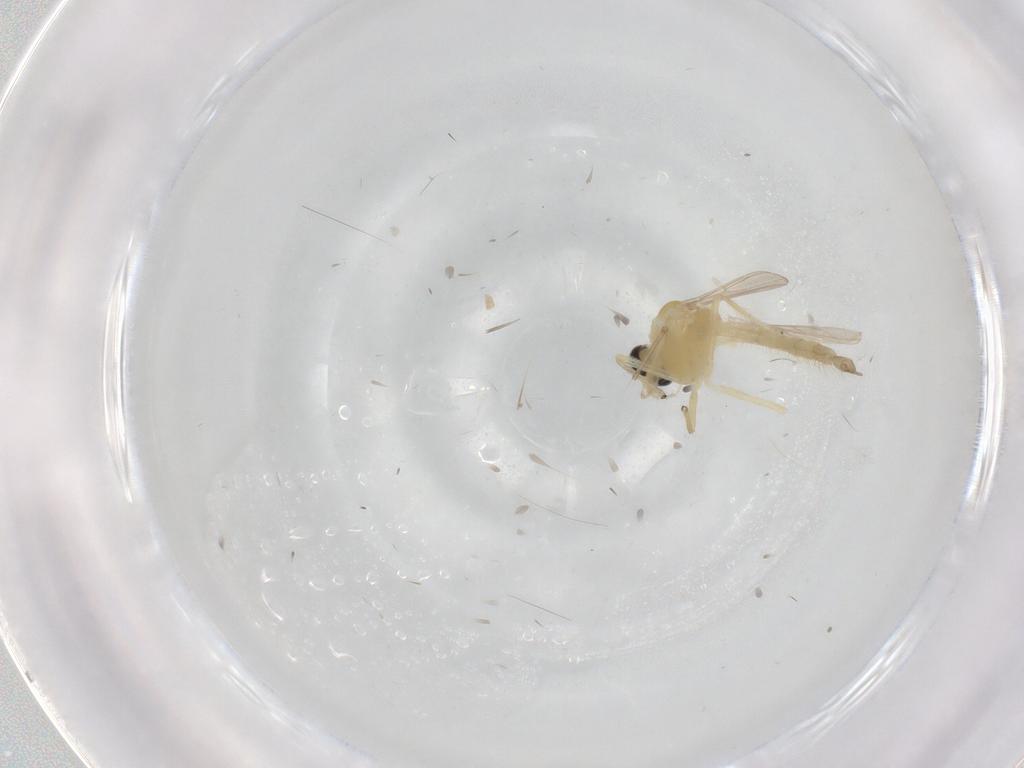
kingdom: Animalia
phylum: Arthropoda
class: Insecta
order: Diptera
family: Chironomidae
